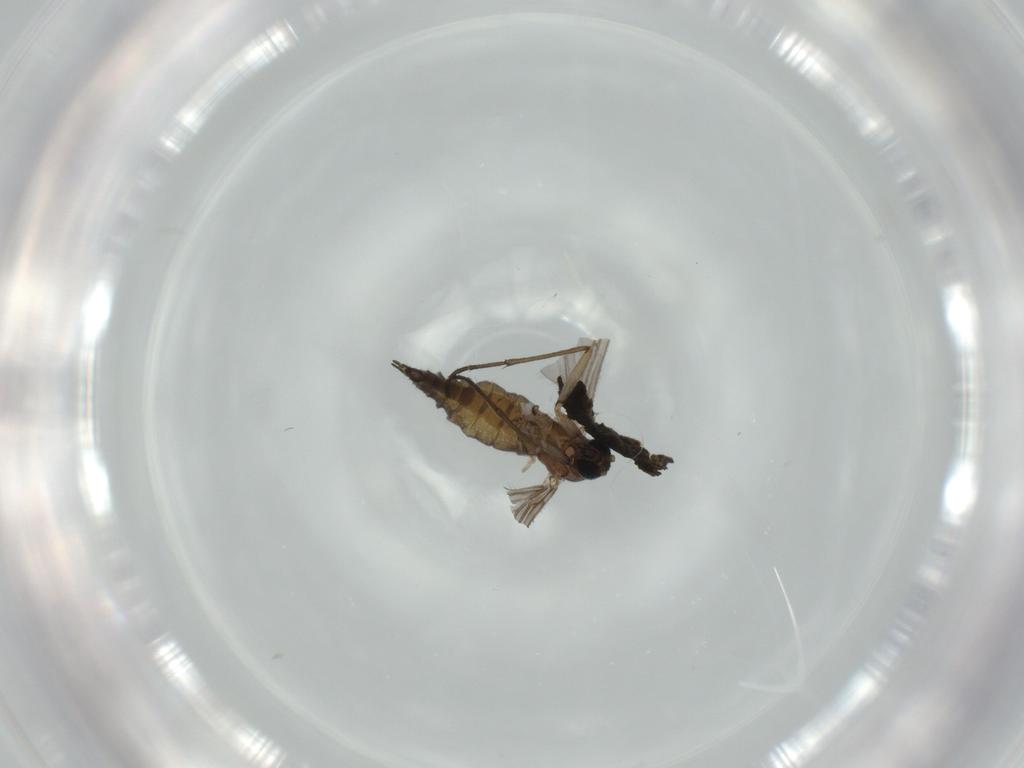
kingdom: Animalia
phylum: Arthropoda
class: Insecta
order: Diptera
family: Sciaridae
